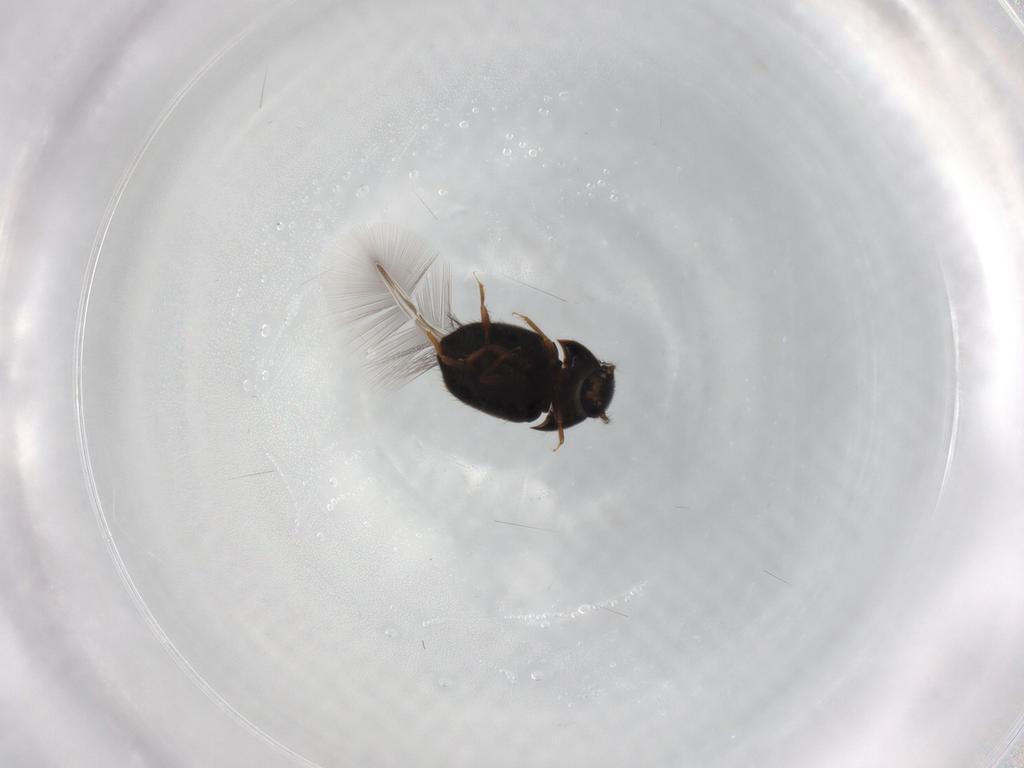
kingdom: Animalia
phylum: Arthropoda
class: Insecta
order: Coleoptera
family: Ptiliidae
